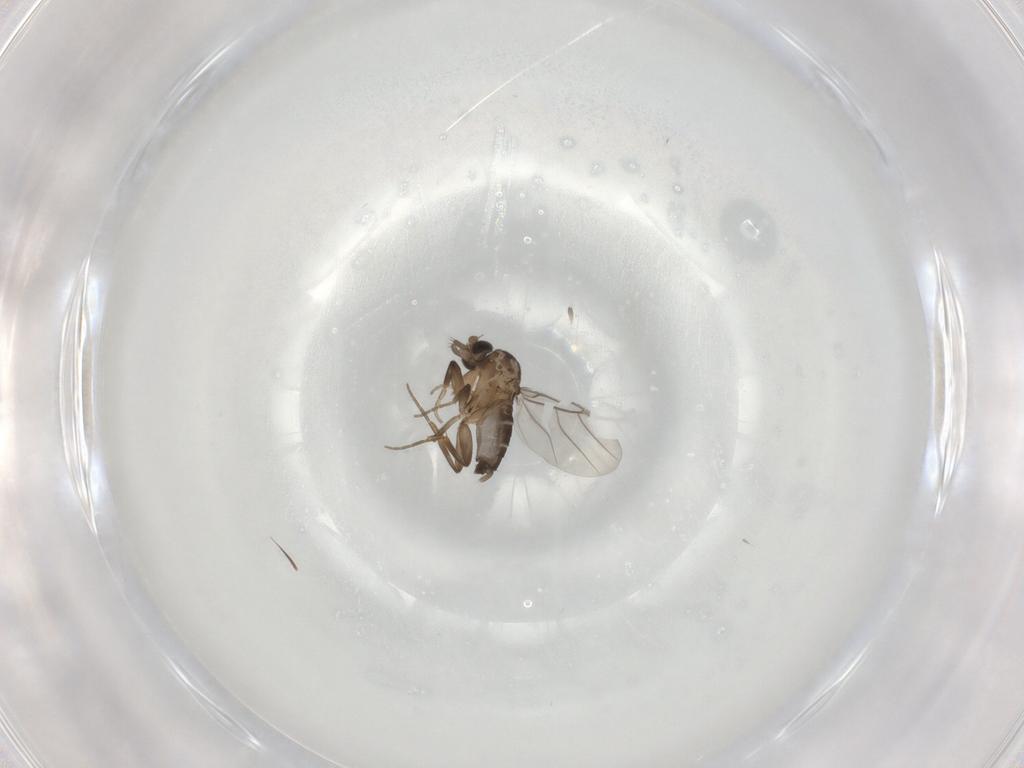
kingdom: Animalia
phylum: Arthropoda
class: Insecta
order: Diptera
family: Phoridae
